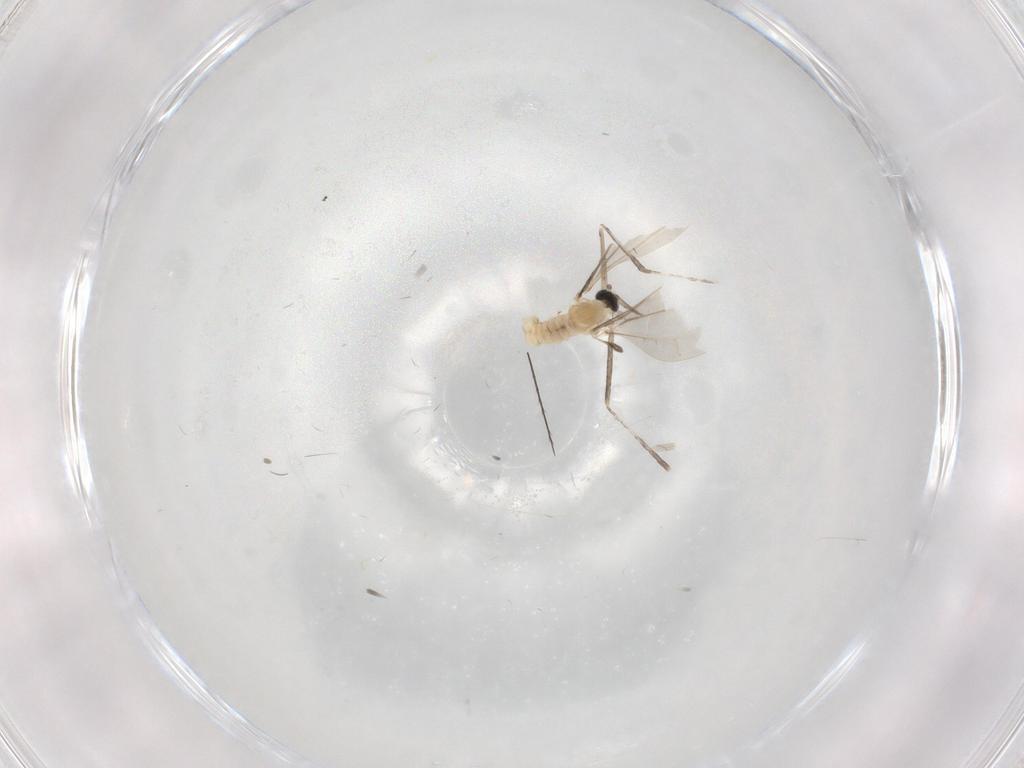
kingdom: Animalia
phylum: Arthropoda
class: Insecta
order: Diptera
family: Cecidomyiidae
